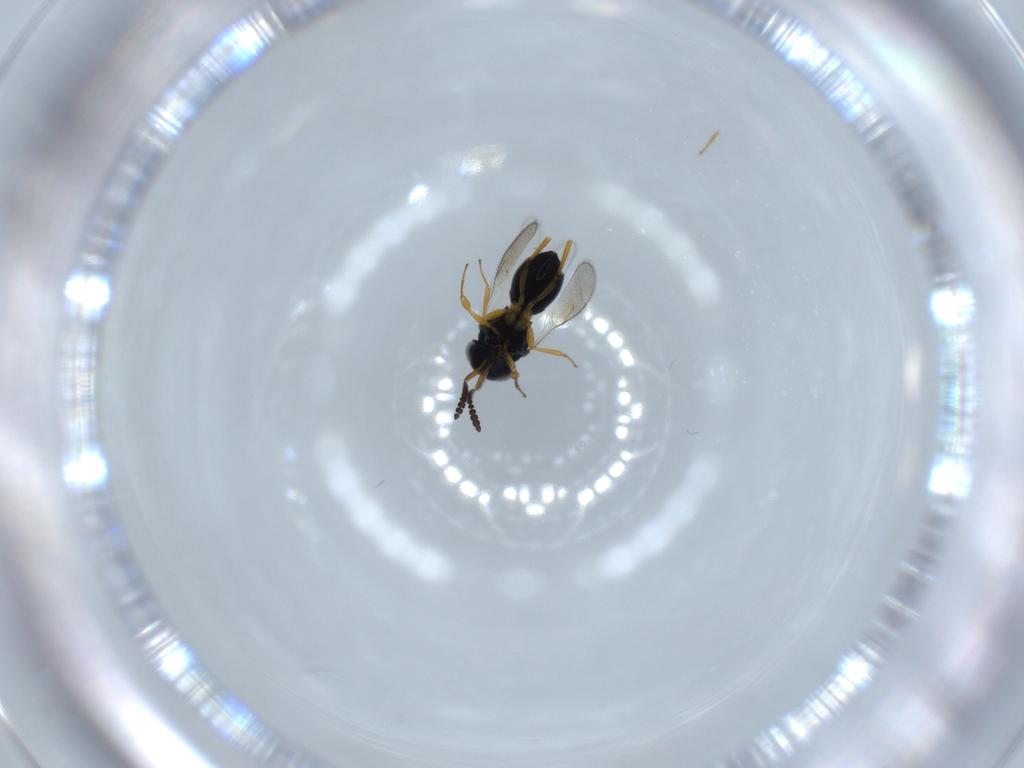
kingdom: Animalia
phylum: Arthropoda
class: Insecta
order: Hymenoptera
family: Scelionidae
